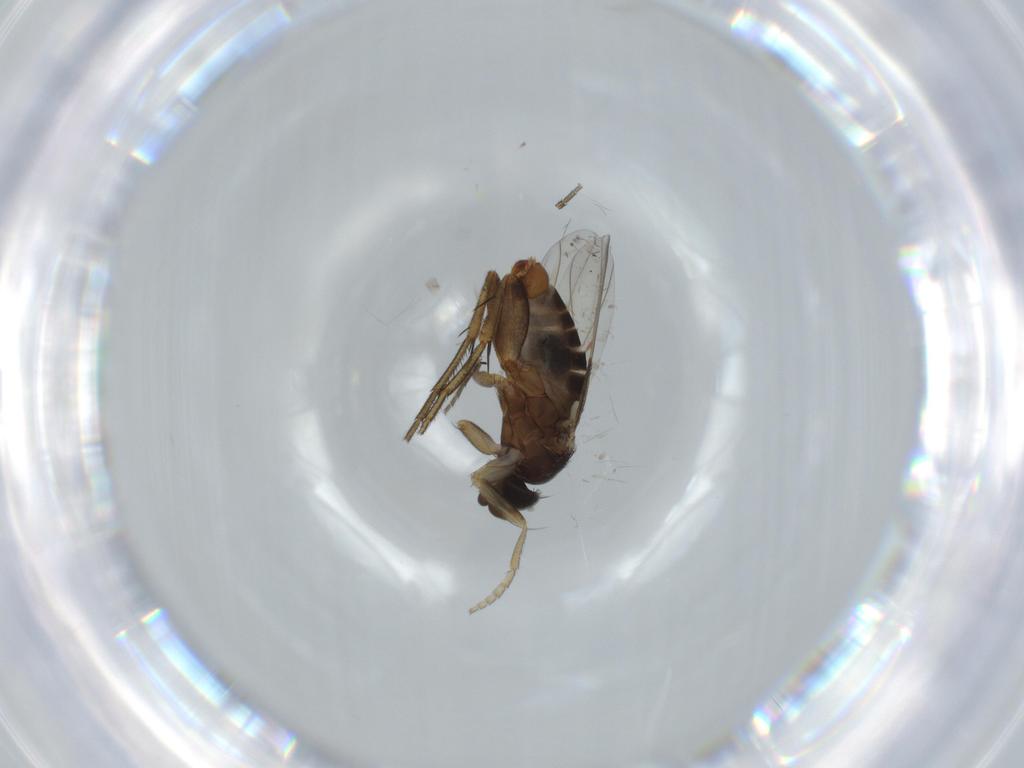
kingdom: Animalia
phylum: Arthropoda
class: Insecta
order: Diptera
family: Phoridae
